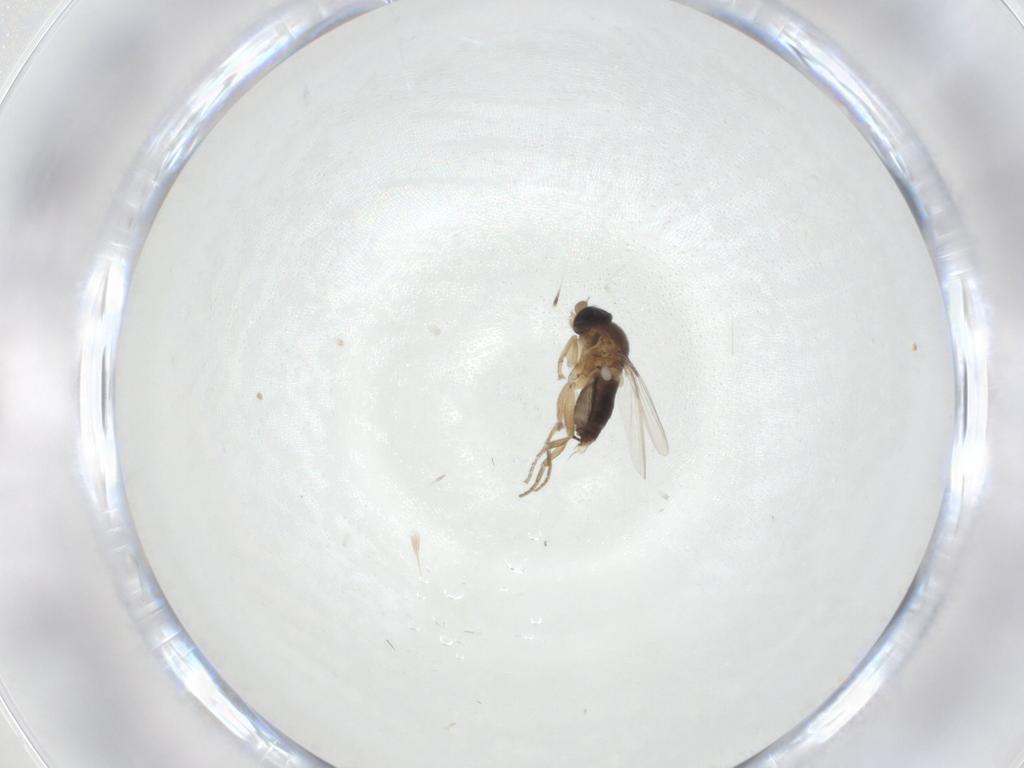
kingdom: Animalia
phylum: Arthropoda
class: Insecta
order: Diptera
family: Phoridae
